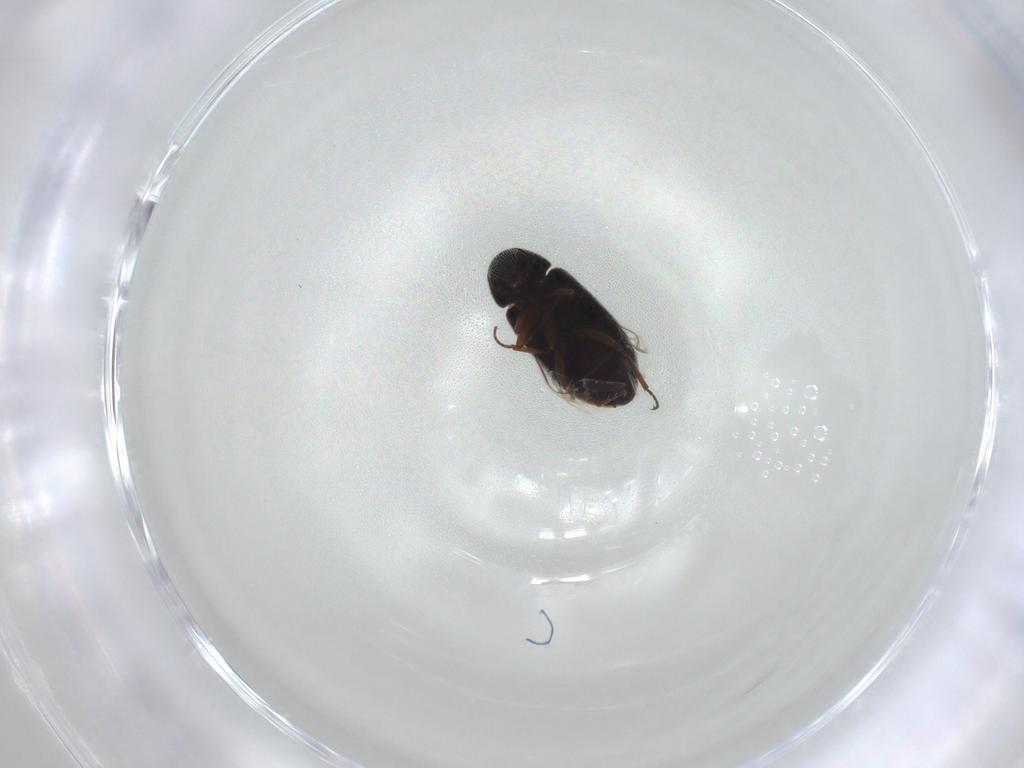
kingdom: Animalia
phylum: Arthropoda
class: Insecta
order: Coleoptera
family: Rhadalidae
